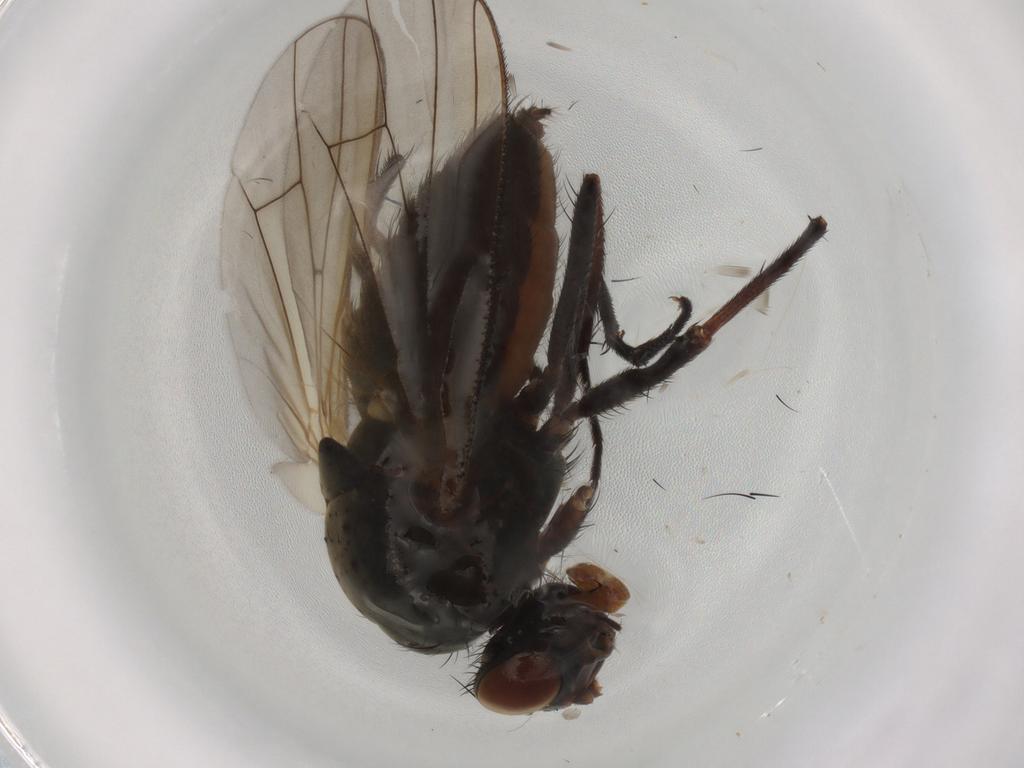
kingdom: Animalia
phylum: Arthropoda
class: Insecta
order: Diptera
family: Anthomyiidae
